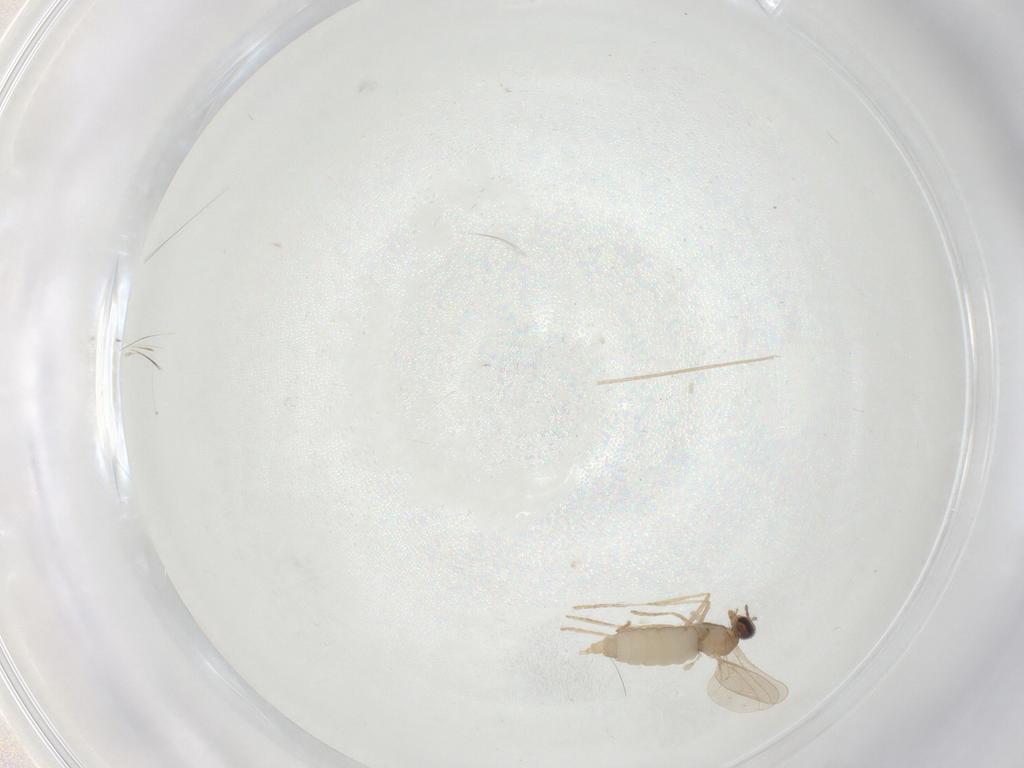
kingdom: Animalia
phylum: Arthropoda
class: Insecta
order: Diptera
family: Cecidomyiidae
